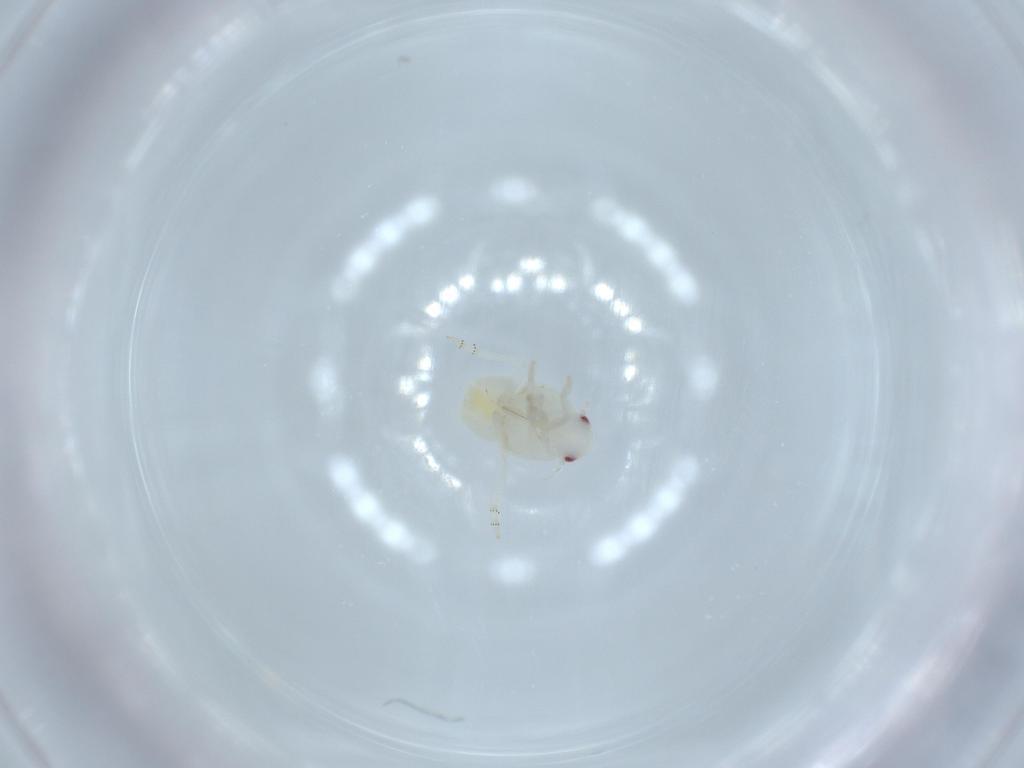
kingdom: Animalia
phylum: Arthropoda
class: Insecta
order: Hemiptera
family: Flatidae
